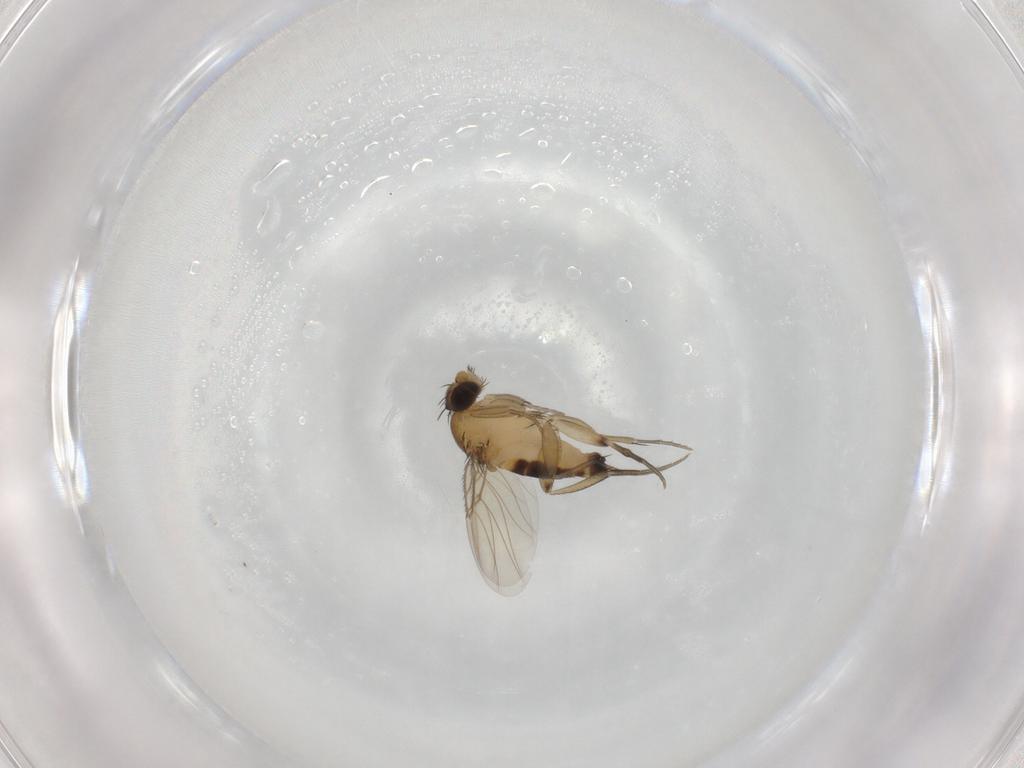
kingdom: Animalia
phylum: Arthropoda
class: Insecta
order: Diptera
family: Phoridae
